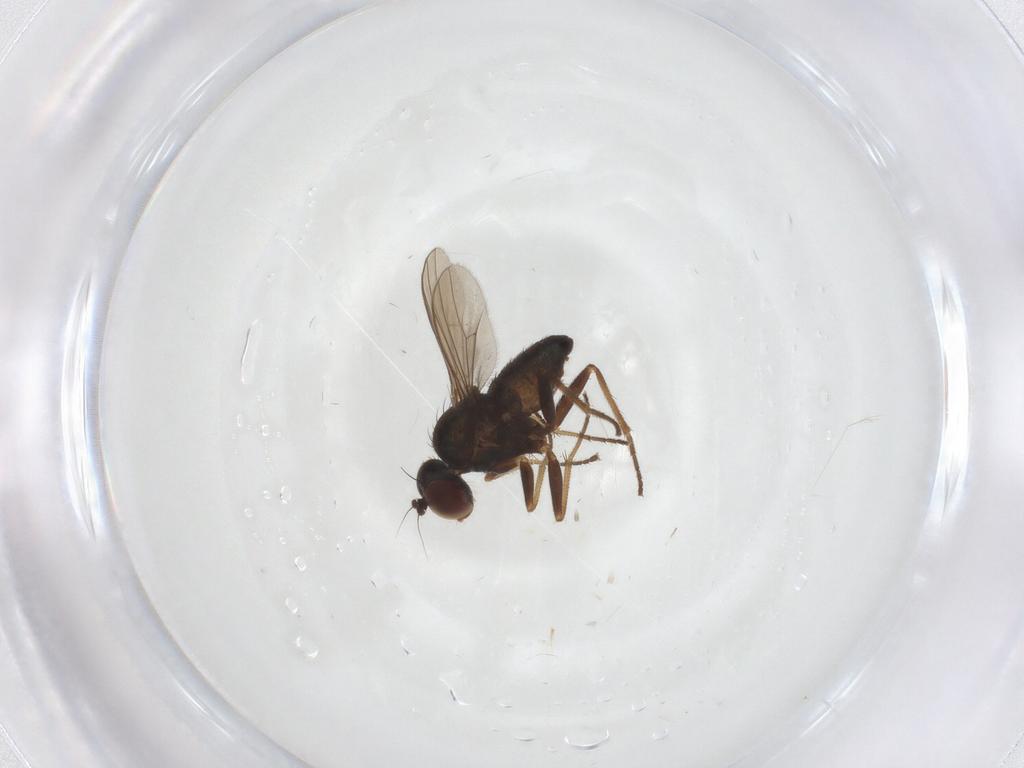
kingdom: Animalia
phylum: Arthropoda
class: Insecta
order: Diptera
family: Dolichopodidae
